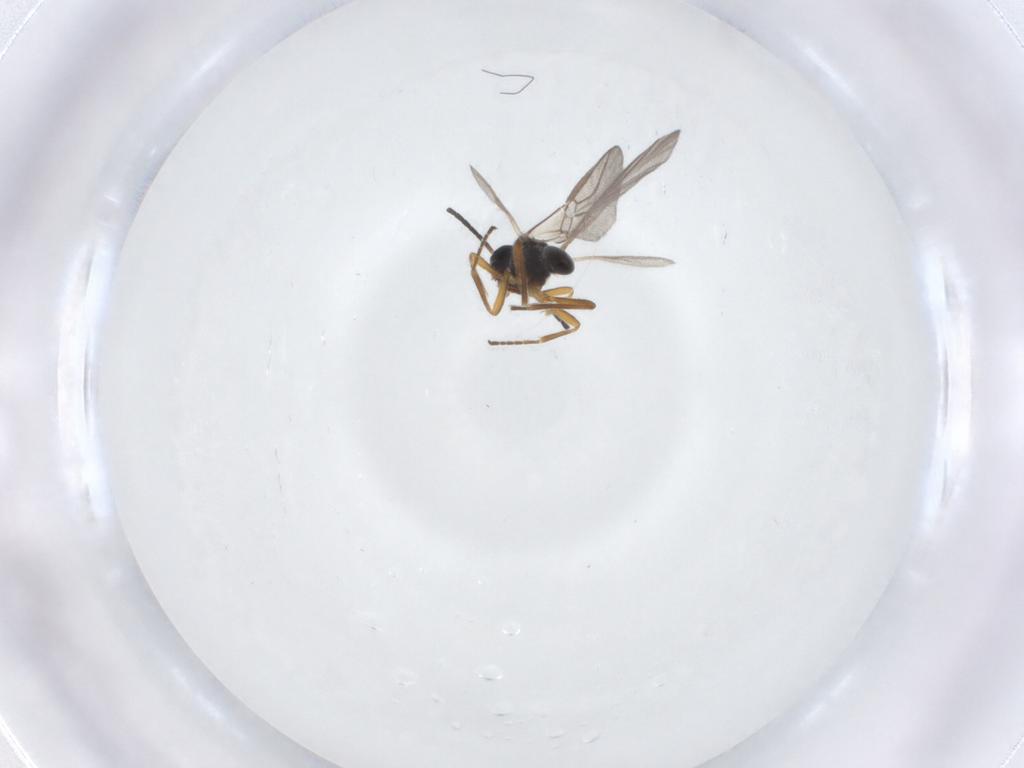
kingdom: Animalia
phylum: Arthropoda
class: Insecta
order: Hymenoptera
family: Braconidae
